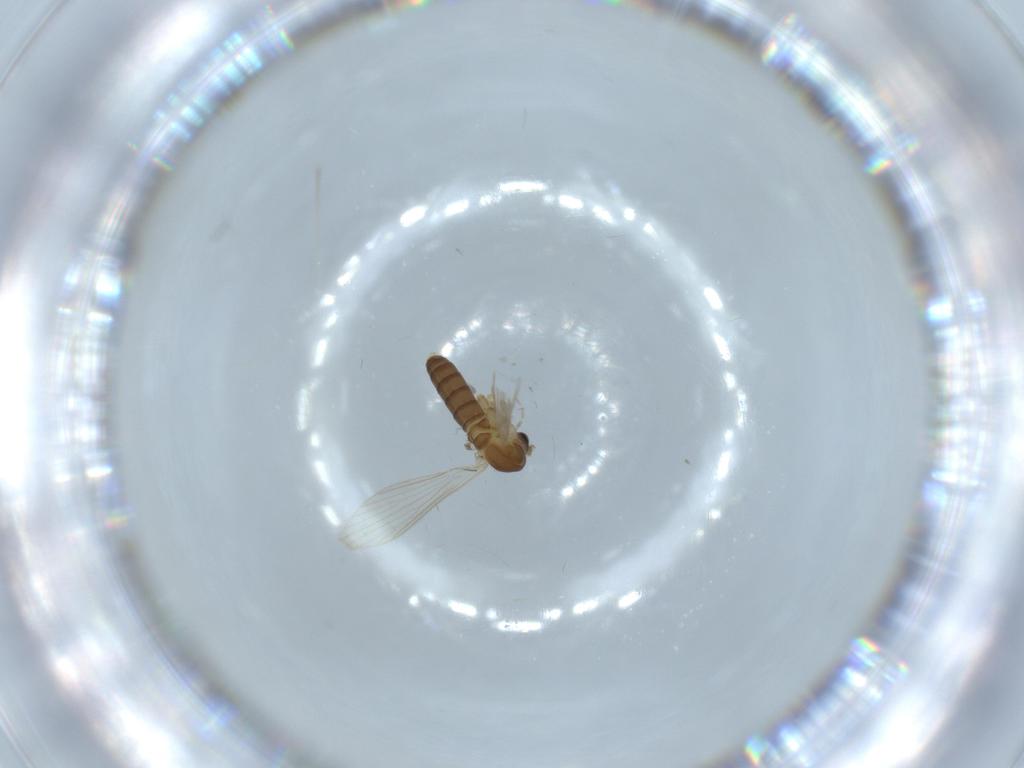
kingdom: Animalia
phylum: Arthropoda
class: Insecta
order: Diptera
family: Psychodidae
